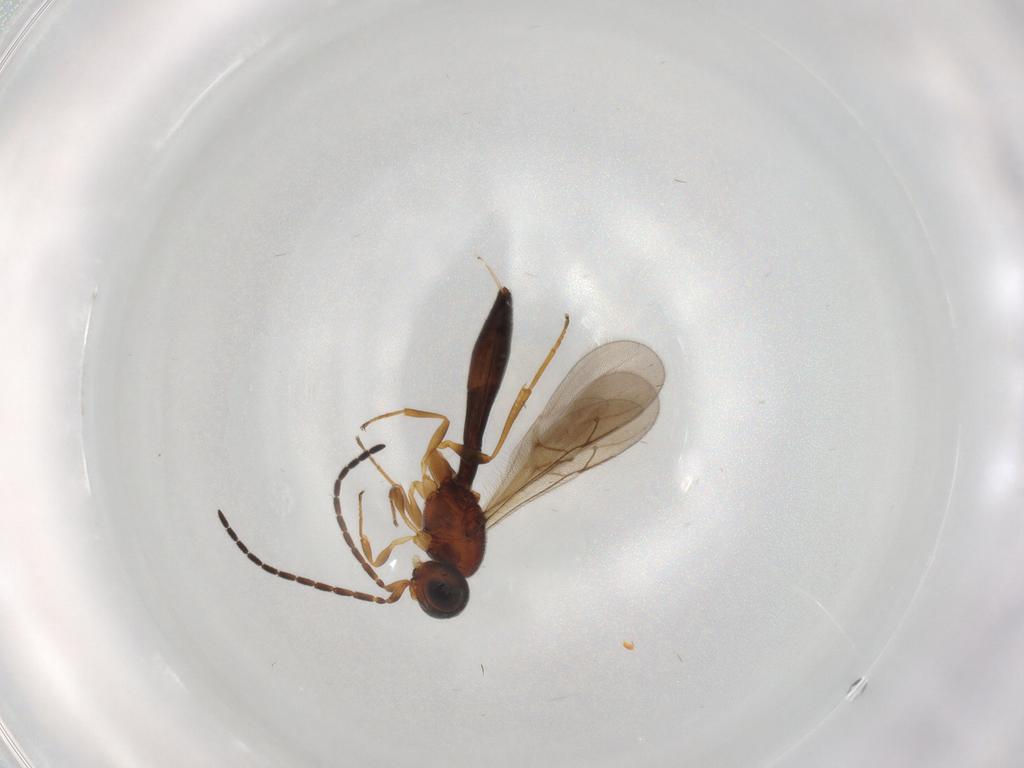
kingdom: Animalia
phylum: Arthropoda
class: Insecta
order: Hymenoptera
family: Scelionidae
